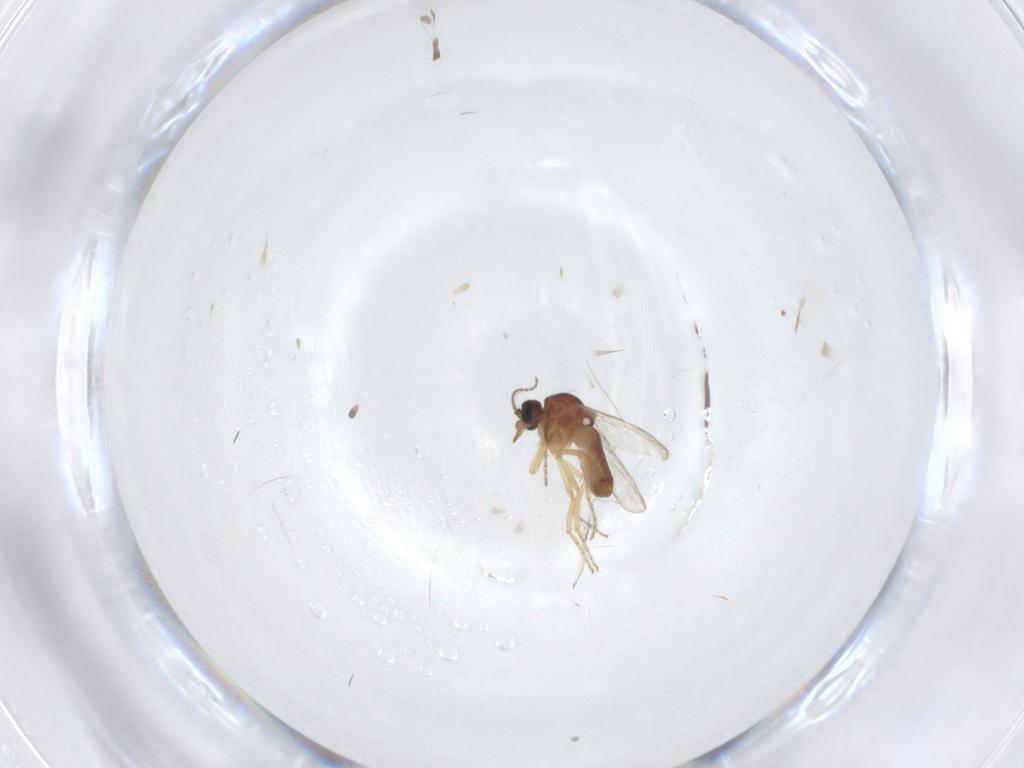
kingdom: Animalia
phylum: Arthropoda
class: Insecta
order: Diptera
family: Ceratopogonidae
